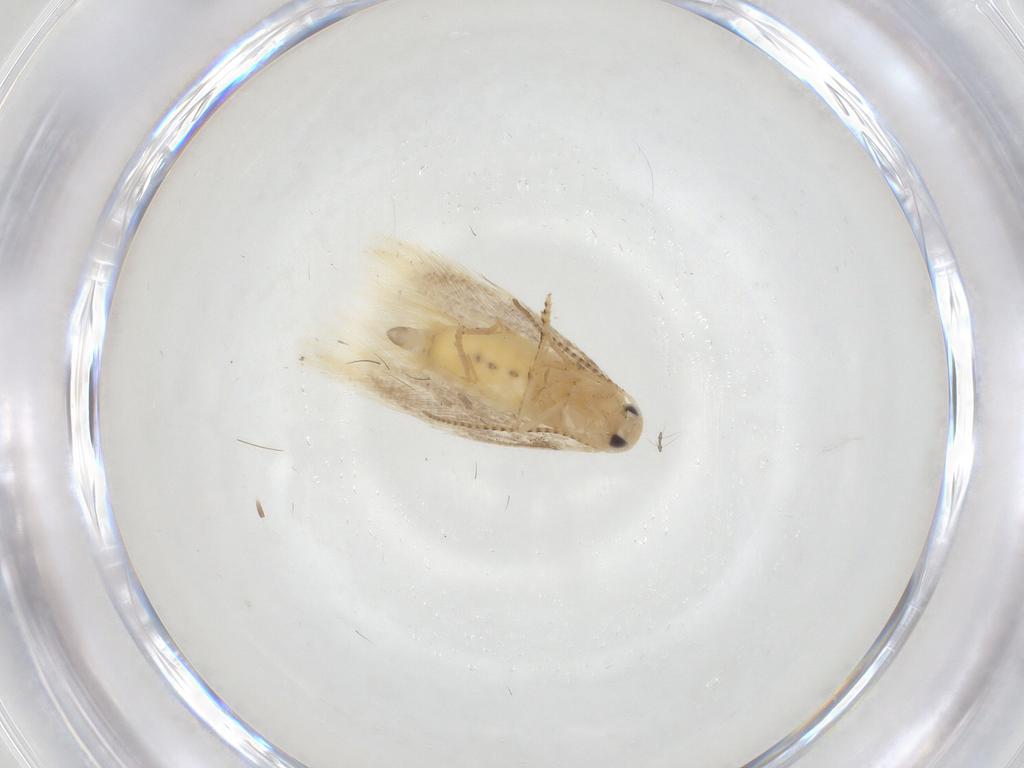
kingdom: Animalia
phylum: Arthropoda
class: Insecta
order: Lepidoptera
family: Bucculatricidae
